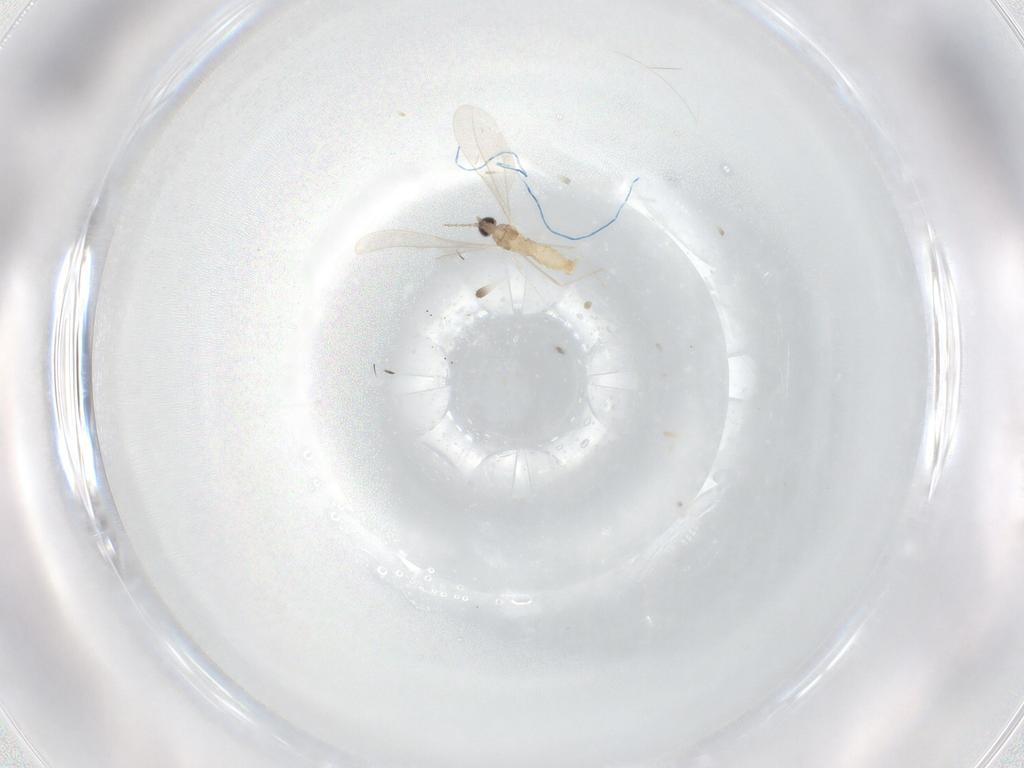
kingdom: Animalia
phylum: Arthropoda
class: Insecta
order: Diptera
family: Cecidomyiidae
